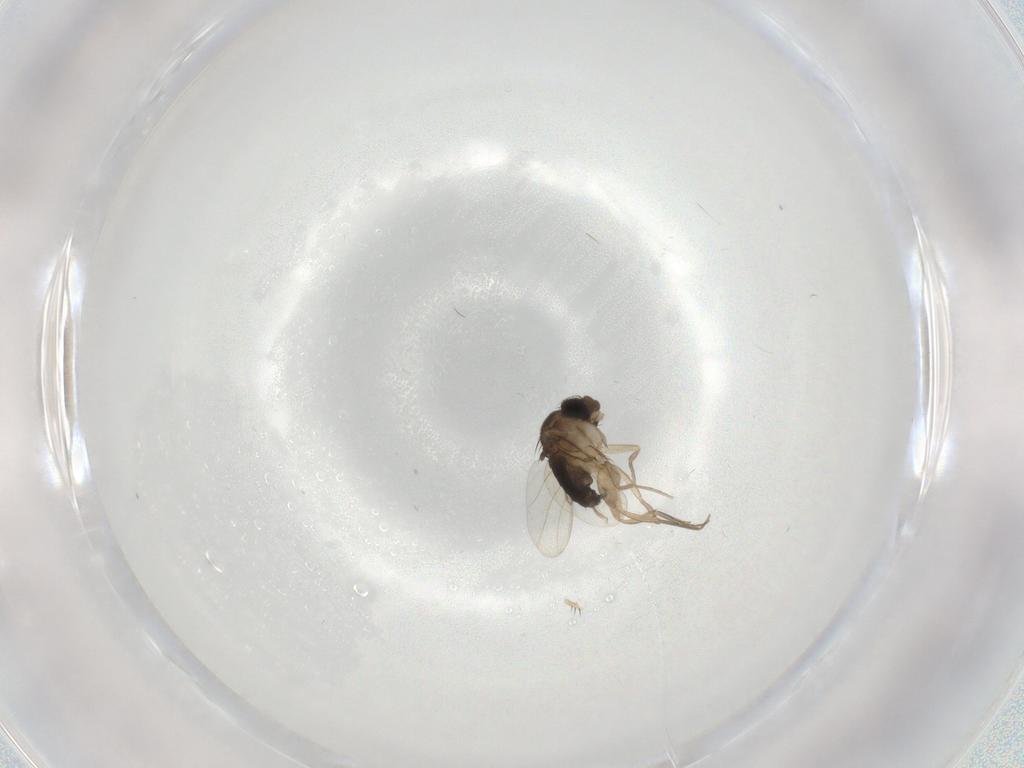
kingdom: Animalia
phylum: Arthropoda
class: Insecta
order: Diptera
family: Phoridae
